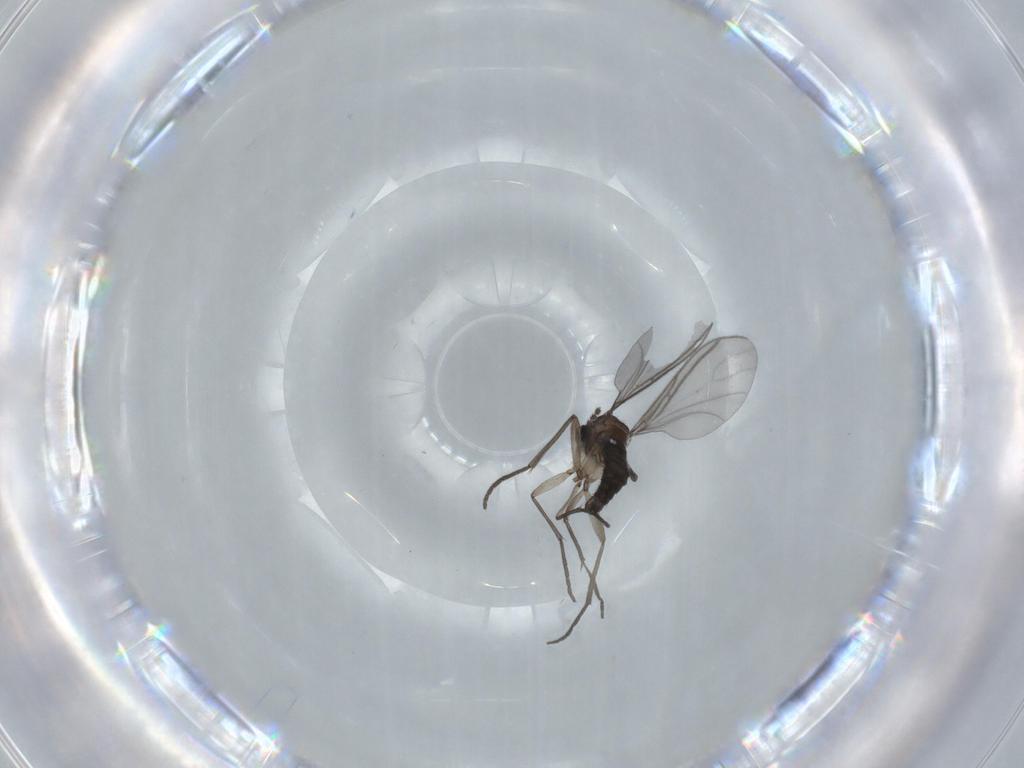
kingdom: Animalia
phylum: Arthropoda
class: Insecta
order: Diptera
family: Sciaridae
